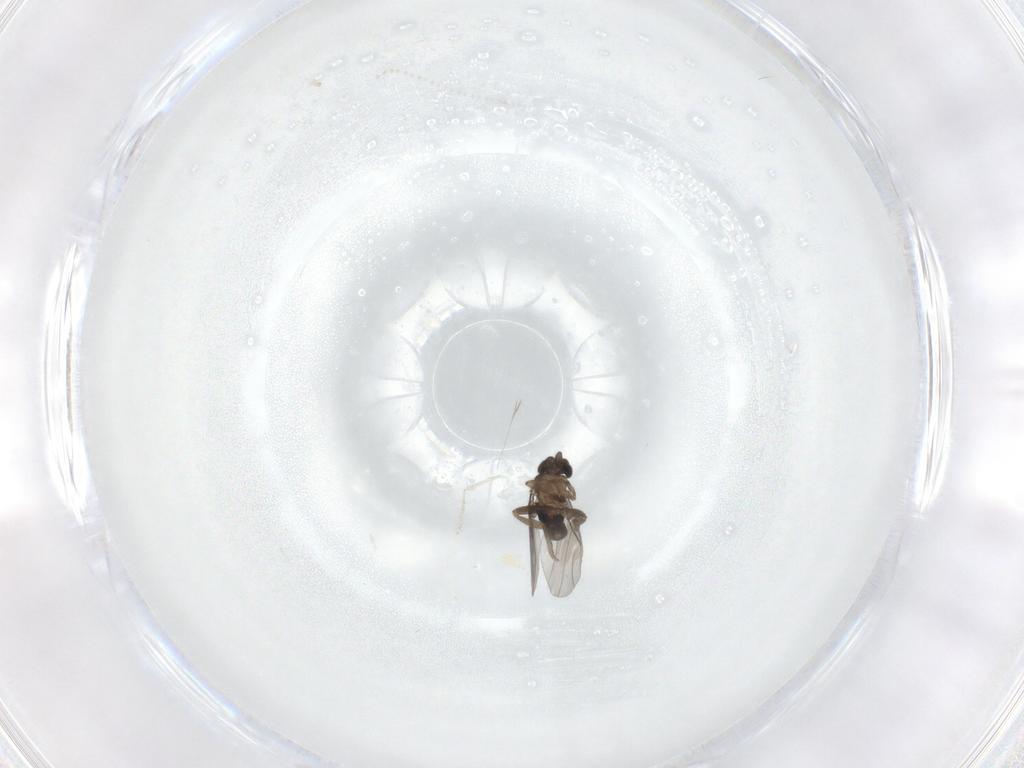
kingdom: Animalia
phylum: Arthropoda
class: Insecta
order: Diptera
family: Cecidomyiidae
